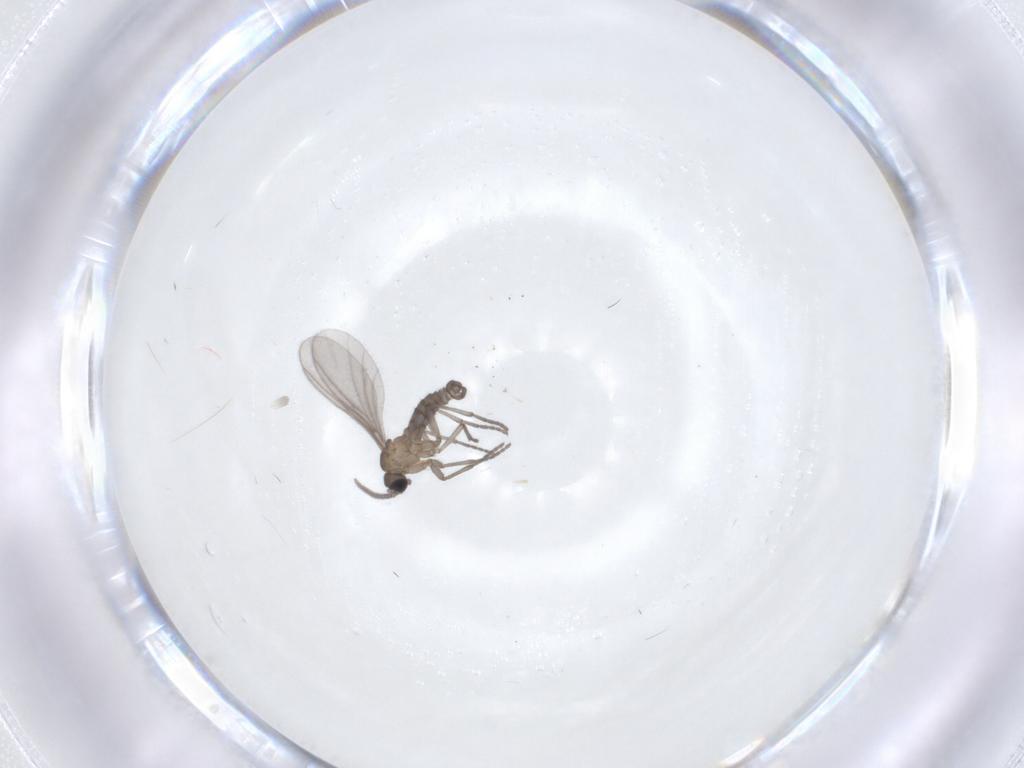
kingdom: Animalia
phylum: Arthropoda
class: Insecta
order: Diptera
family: Sciaridae
